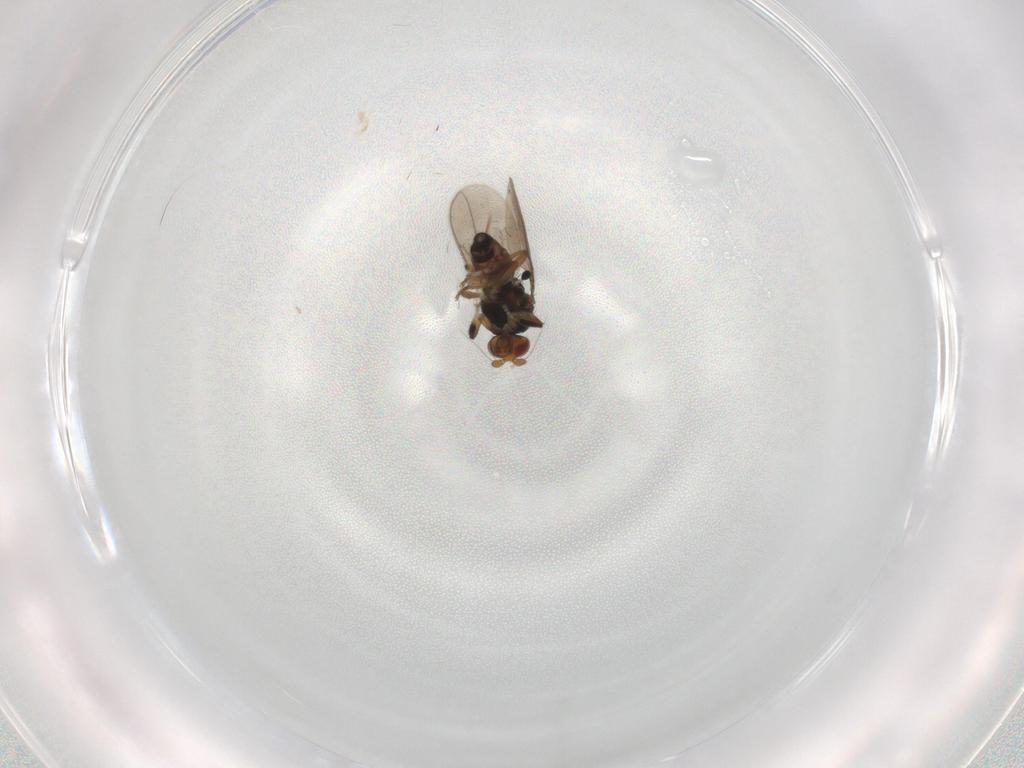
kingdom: Animalia
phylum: Arthropoda
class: Insecta
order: Diptera
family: Sphaeroceridae
